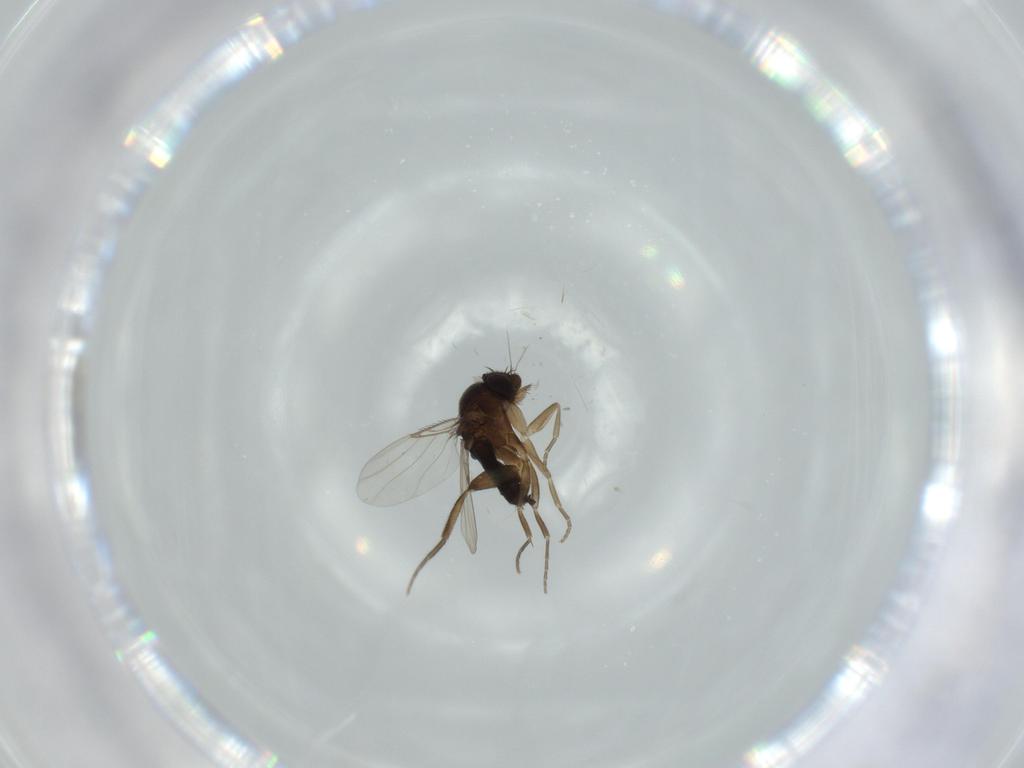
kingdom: Animalia
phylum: Arthropoda
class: Insecta
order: Diptera
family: Phoridae
